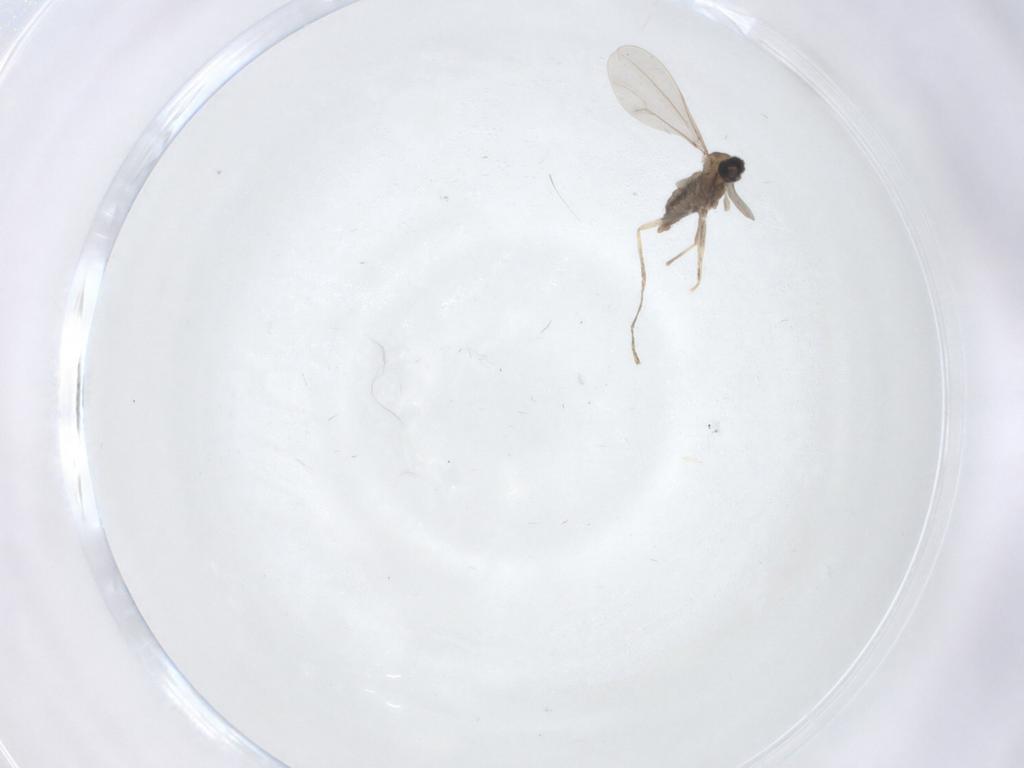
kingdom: Animalia
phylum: Arthropoda
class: Insecta
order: Diptera
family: Cecidomyiidae
